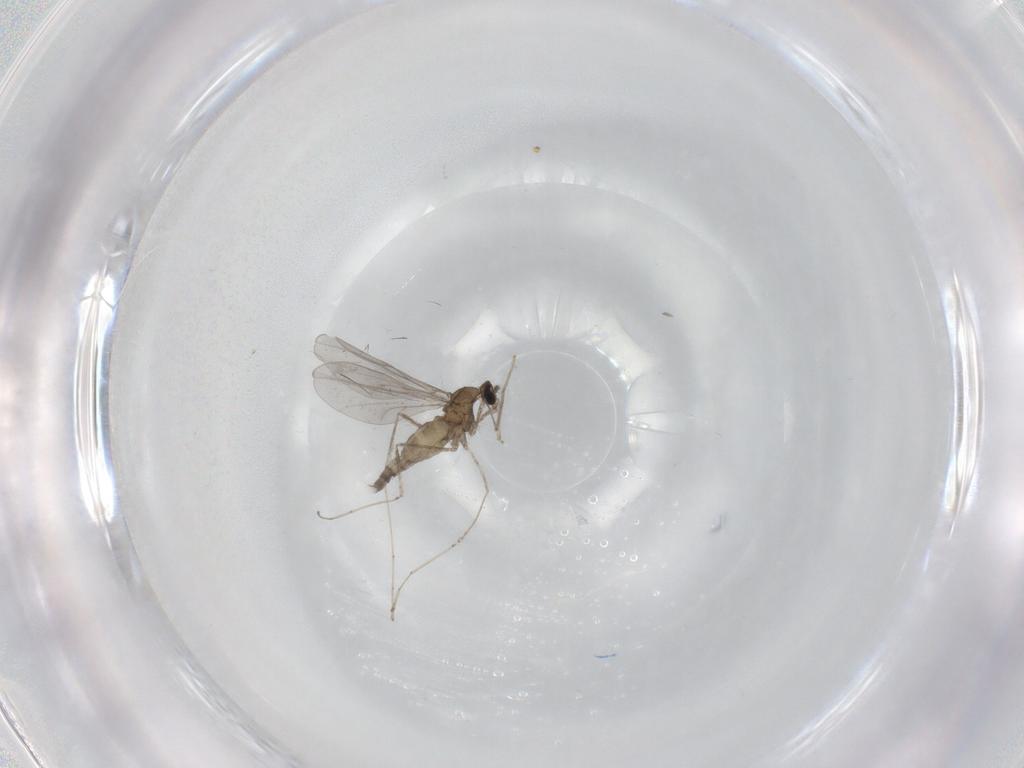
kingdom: Animalia
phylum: Arthropoda
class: Insecta
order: Diptera
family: Cecidomyiidae
